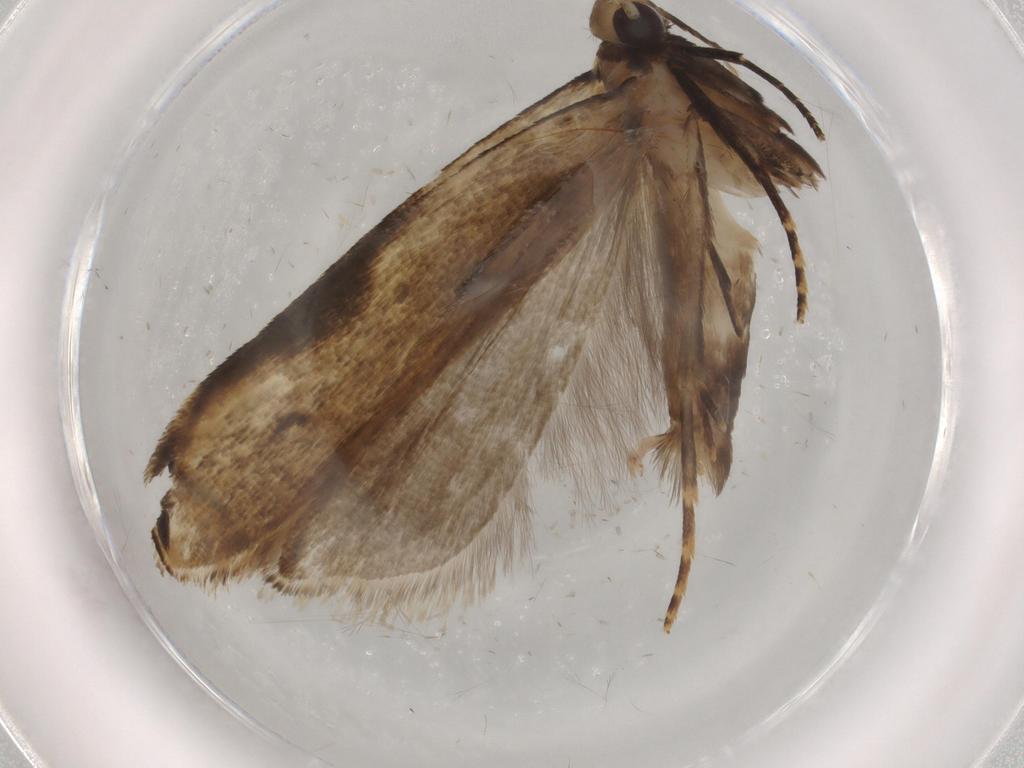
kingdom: Animalia
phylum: Arthropoda
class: Insecta
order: Lepidoptera
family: Gelechiidae
